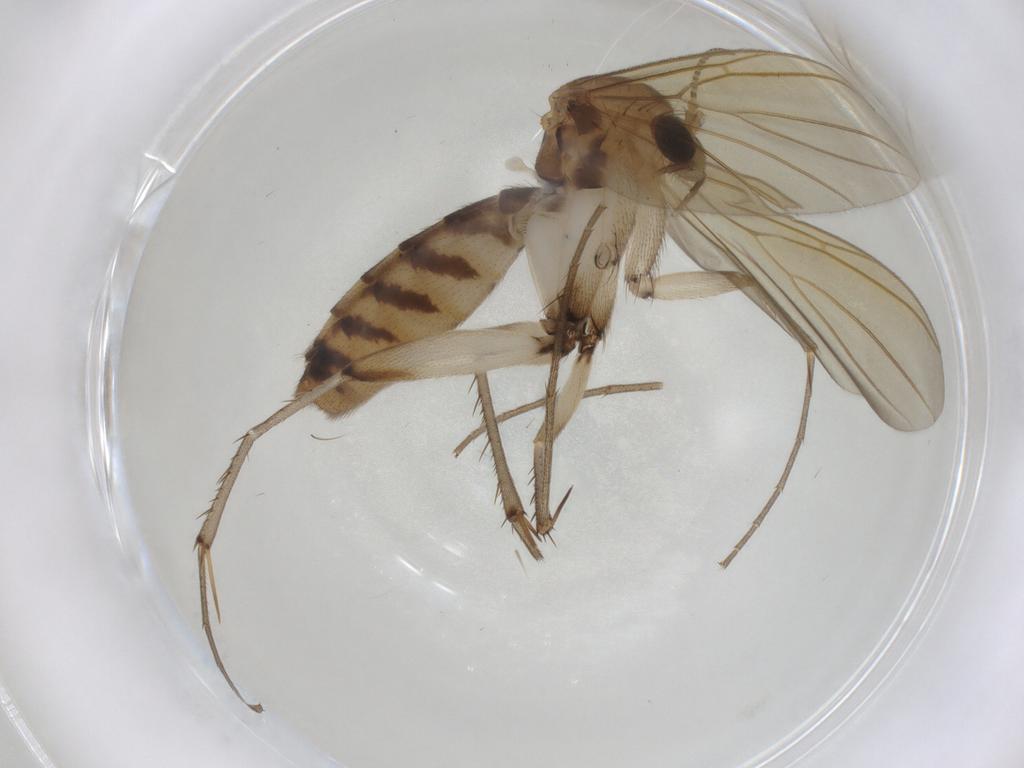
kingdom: Animalia
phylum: Arthropoda
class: Insecta
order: Diptera
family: Mycetophilidae
